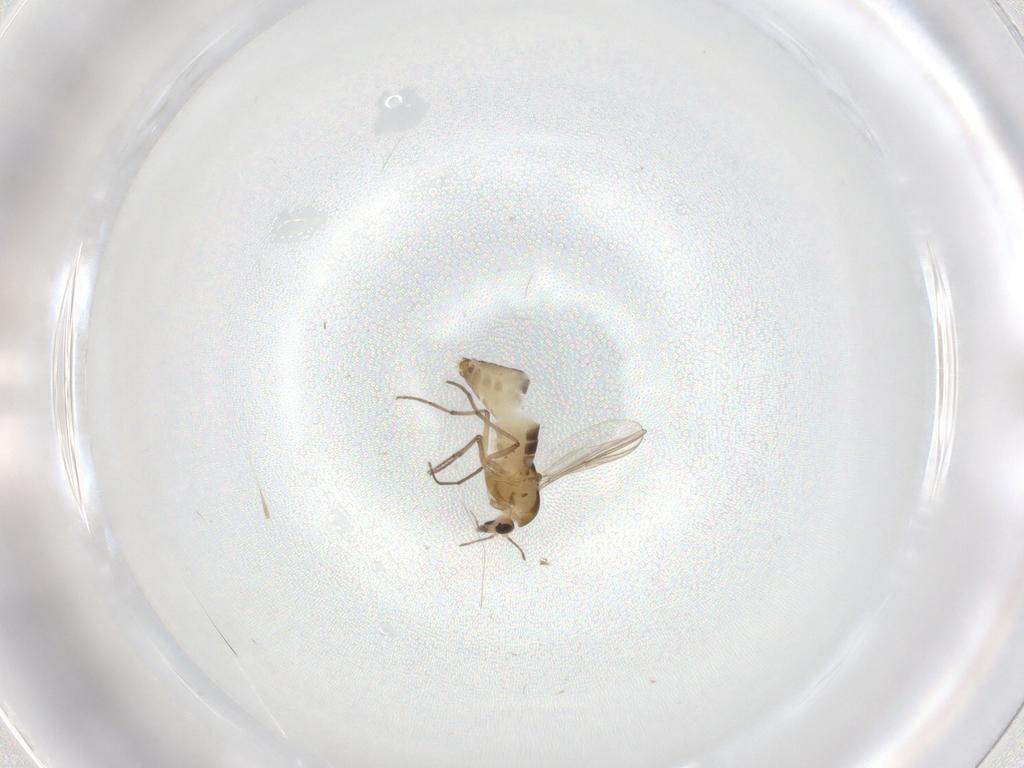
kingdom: Animalia
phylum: Arthropoda
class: Insecta
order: Diptera
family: Chironomidae
